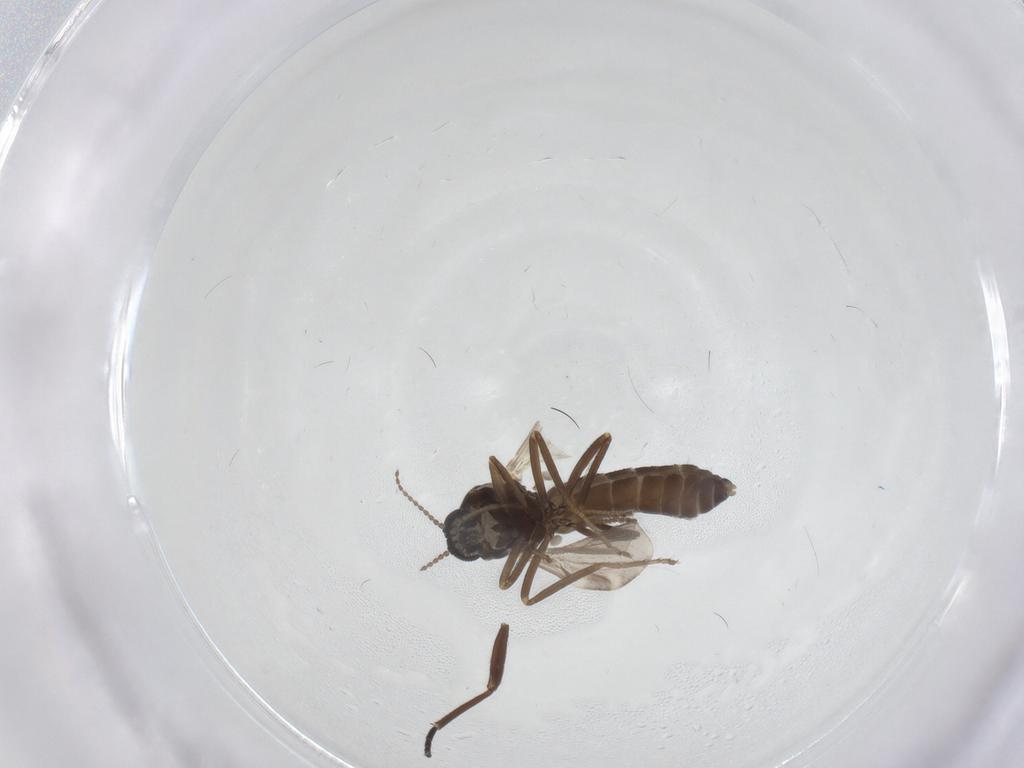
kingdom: Animalia
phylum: Arthropoda
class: Insecta
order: Diptera
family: Ceratopogonidae
